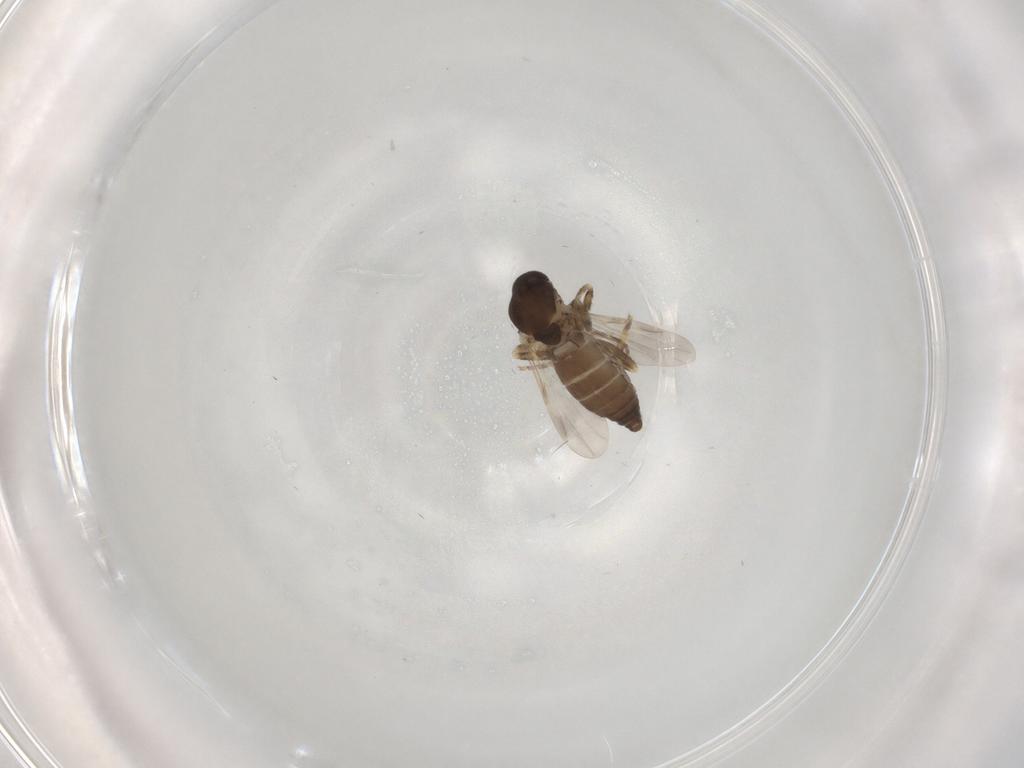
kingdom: Animalia
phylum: Arthropoda
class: Insecta
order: Diptera
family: Ceratopogonidae
